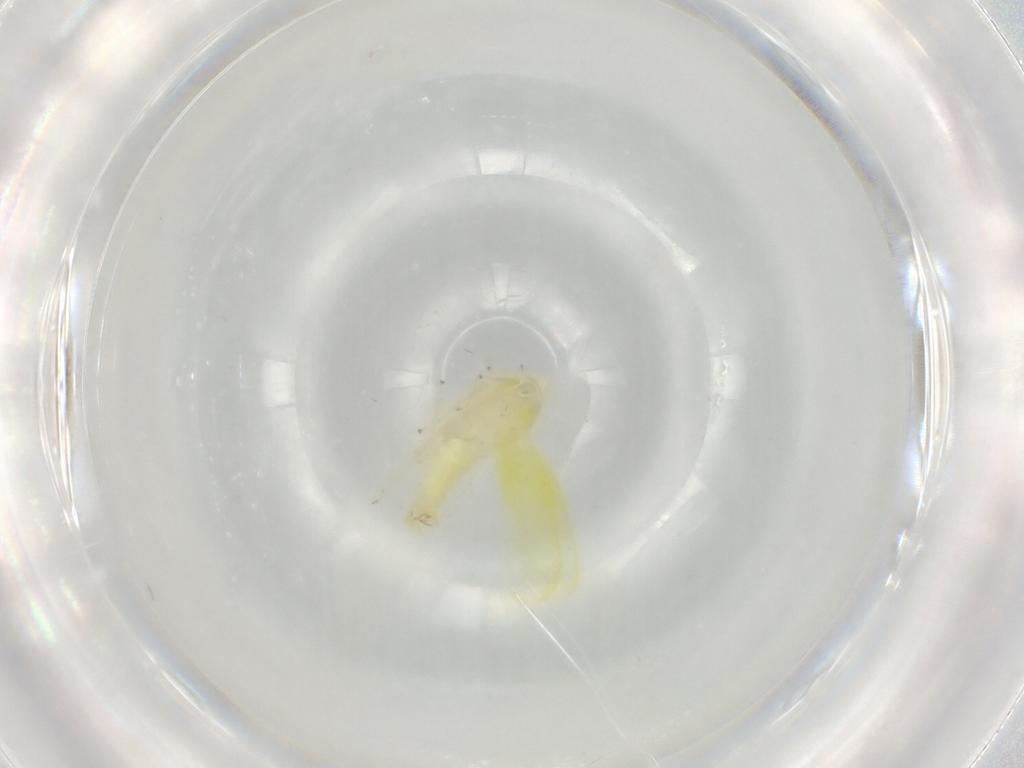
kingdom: Animalia
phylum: Arthropoda
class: Insecta
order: Hemiptera
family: Cicadellidae
